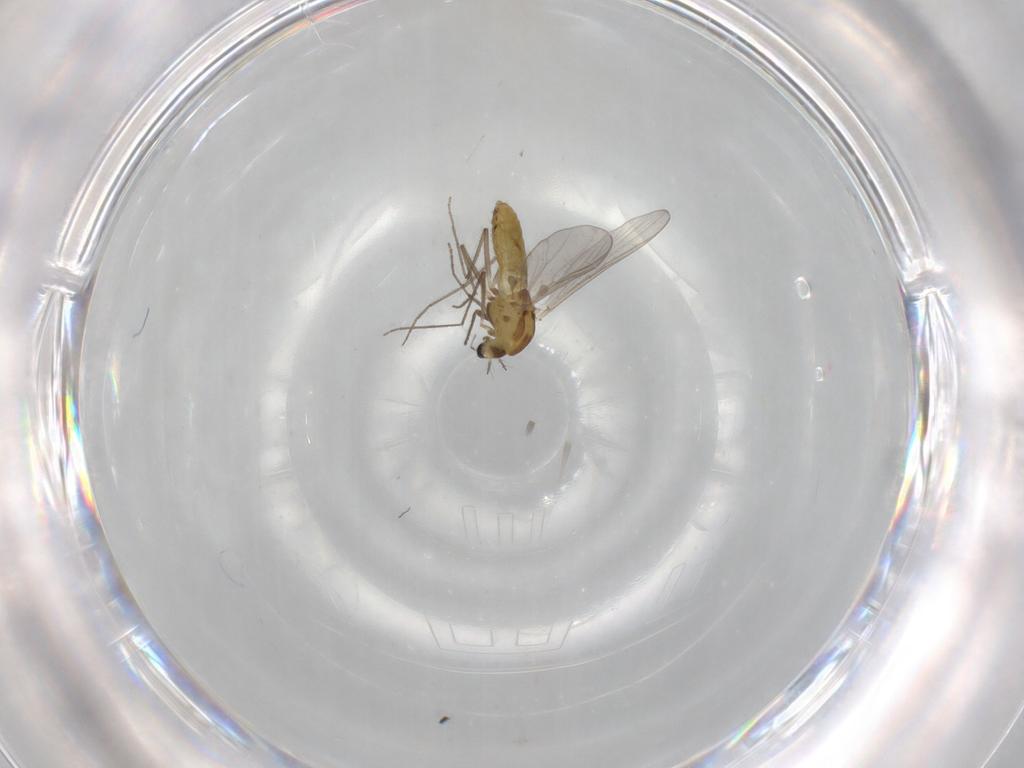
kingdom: Animalia
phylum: Arthropoda
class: Insecta
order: Diptera
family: Chironomidae
